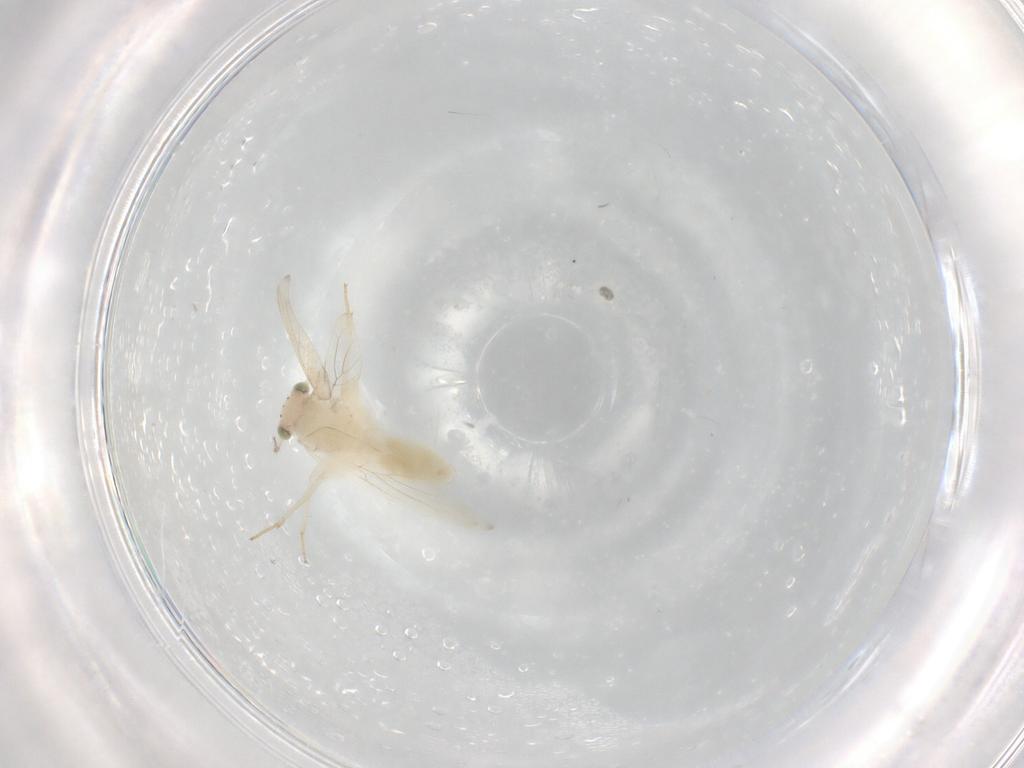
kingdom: Animalia
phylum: Arthropoda
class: Insecta
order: Psocodea
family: Lepidopsocidae
